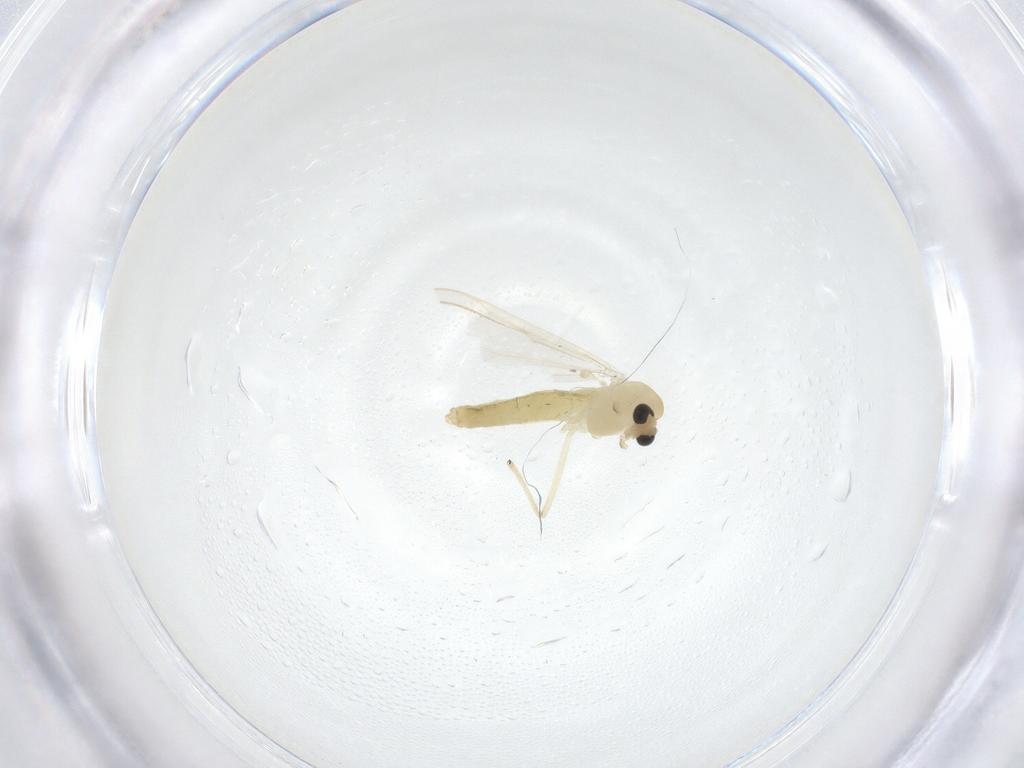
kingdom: Animalia
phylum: Arthropoda
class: Insecta
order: Diptera
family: Chironomidae
